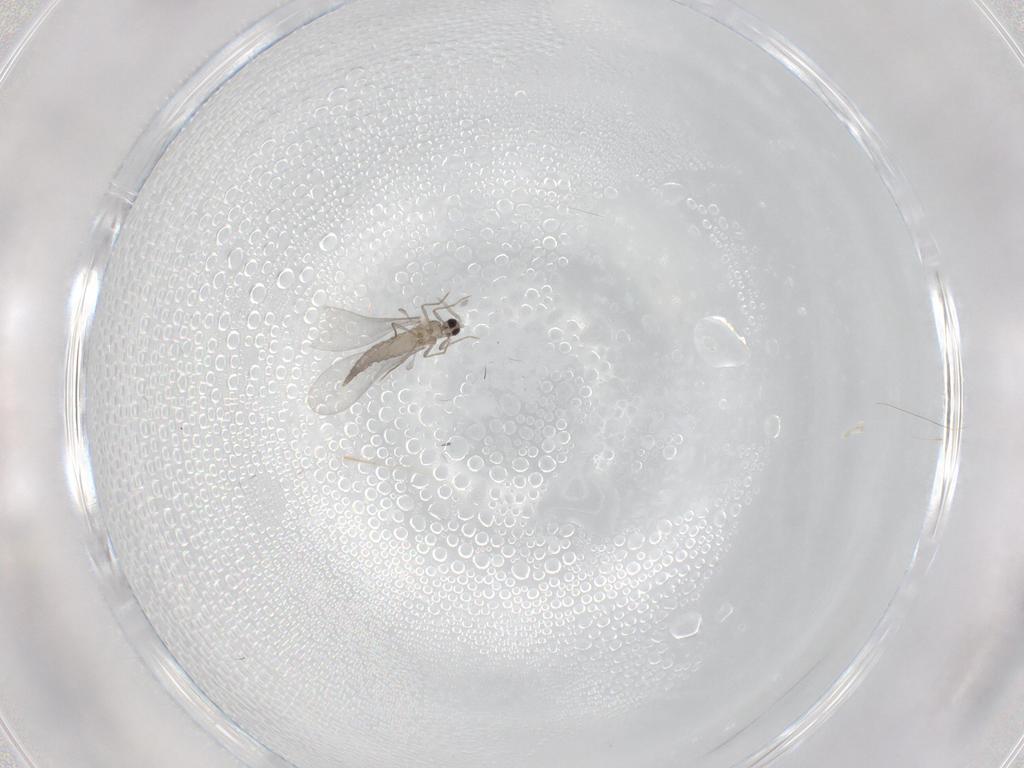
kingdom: Animalia
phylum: Arthropoda
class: Insecta
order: Diptera
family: Cecidomyiidae
